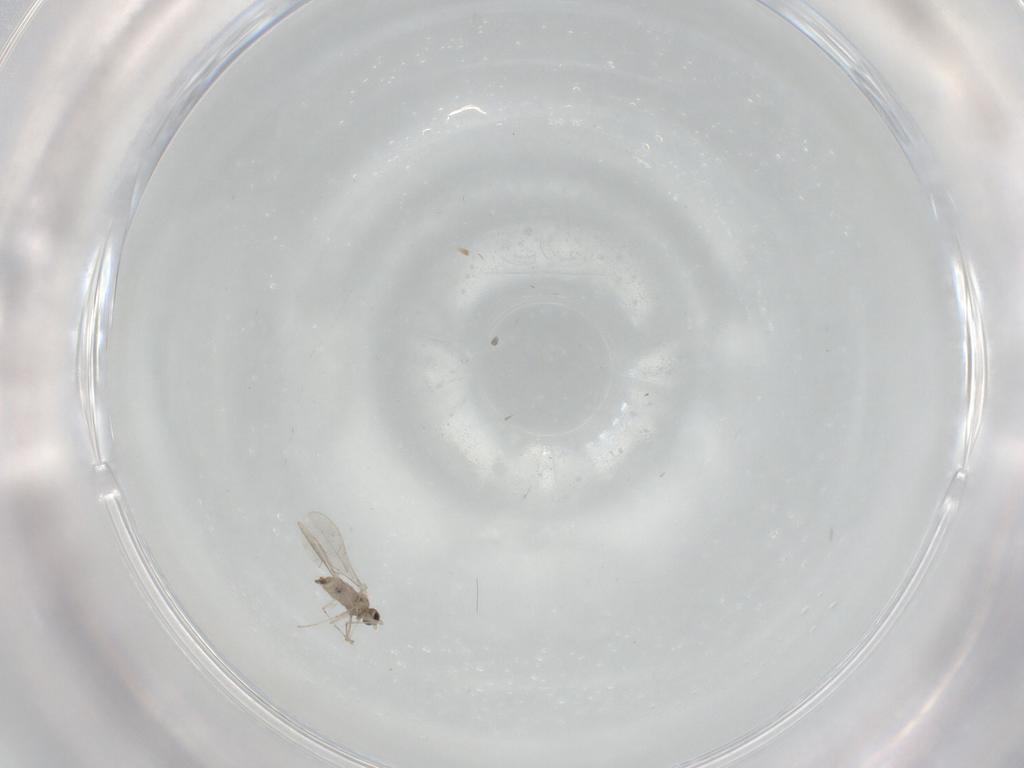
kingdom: Animalia
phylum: Arthropoda
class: Insecta
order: Diptera
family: Cecidomyiidae
